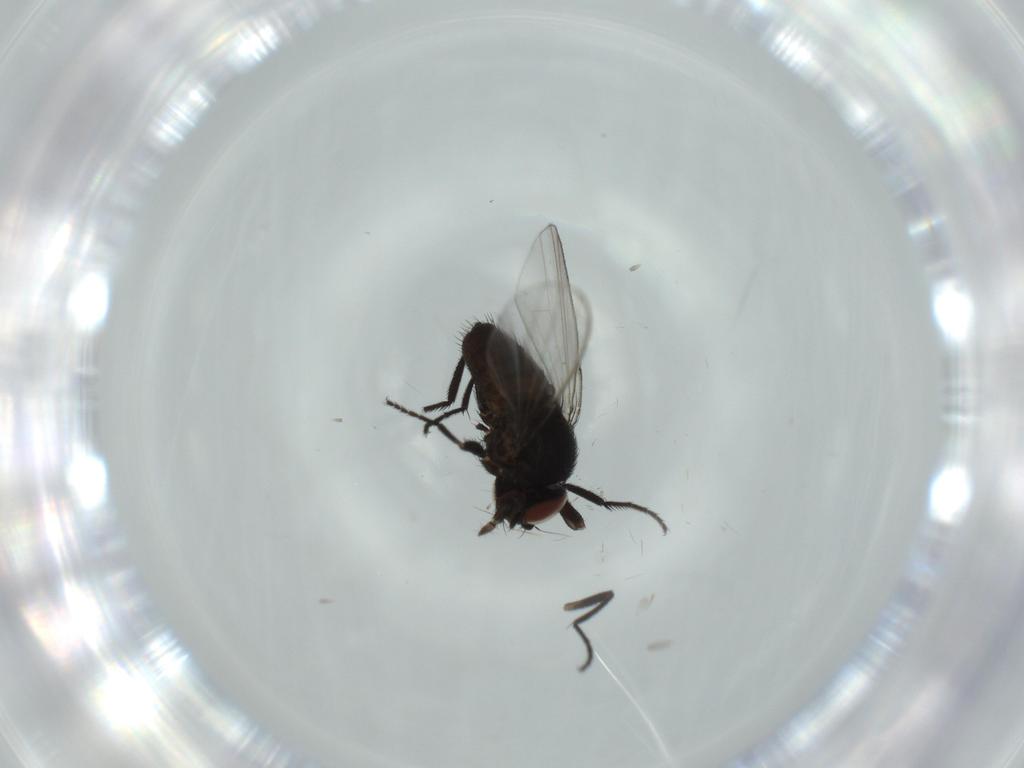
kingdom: Animalia
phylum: Arthropoda
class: Insecta
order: Diptera
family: Milichiidae
